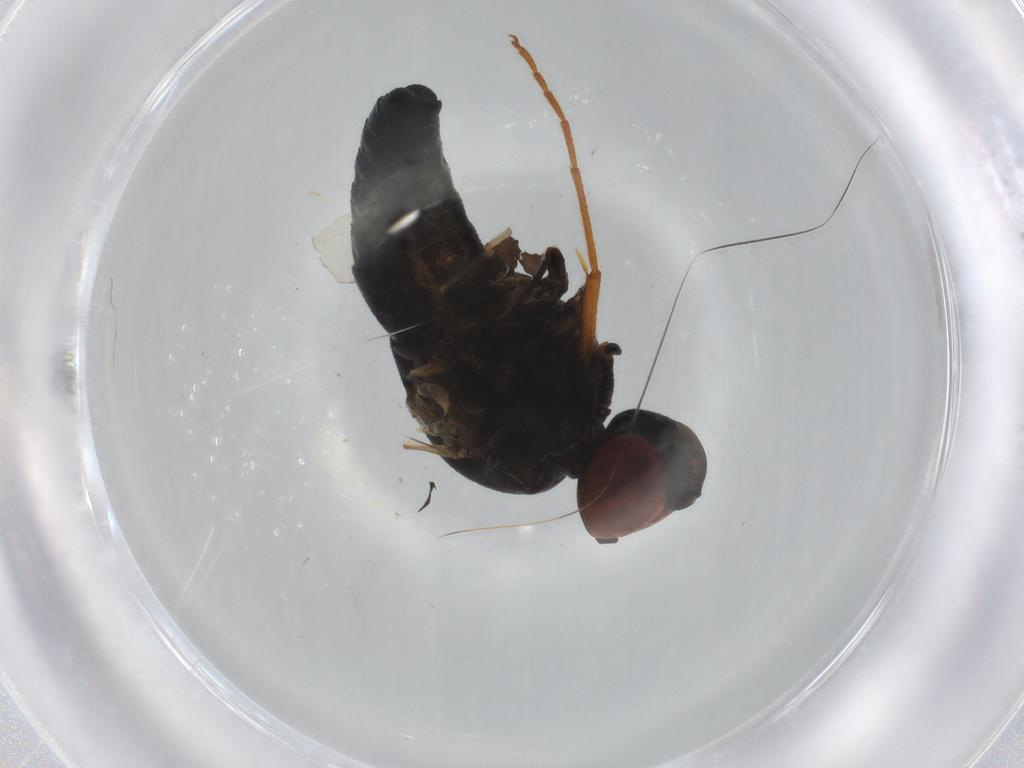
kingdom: Animalia
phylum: Arthropoda
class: Insecta
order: Diptera
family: Bombyliidae
